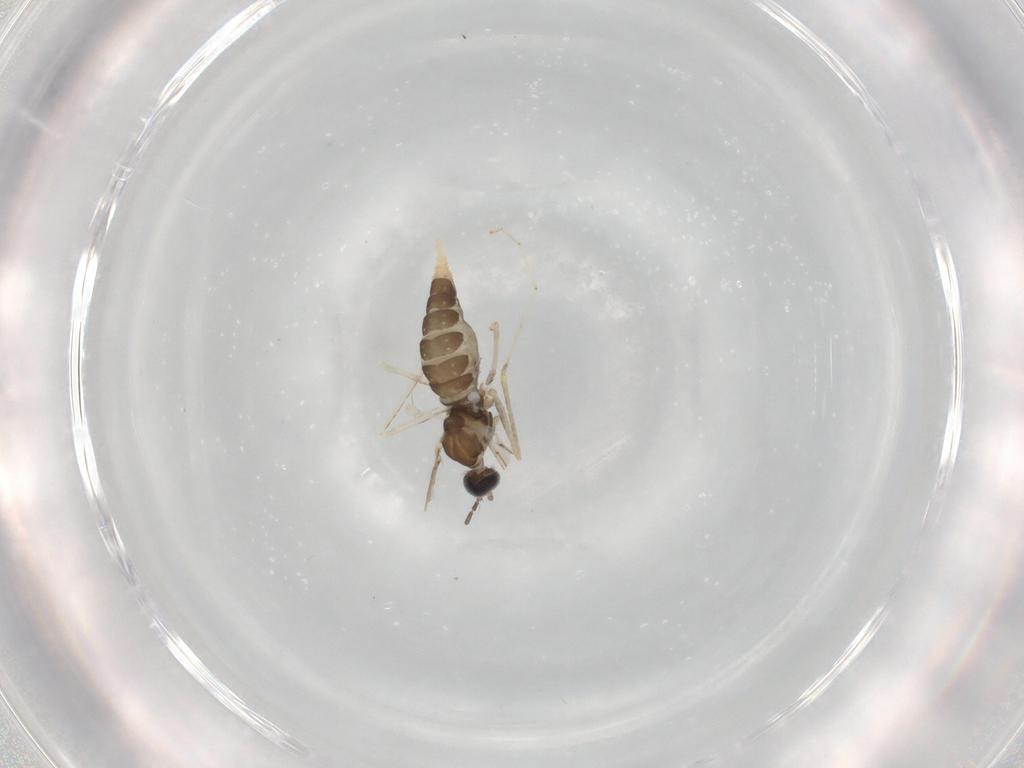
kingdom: Animalia
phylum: Arthropoda
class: Insecta
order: Diptera
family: Cecidomyiidae
